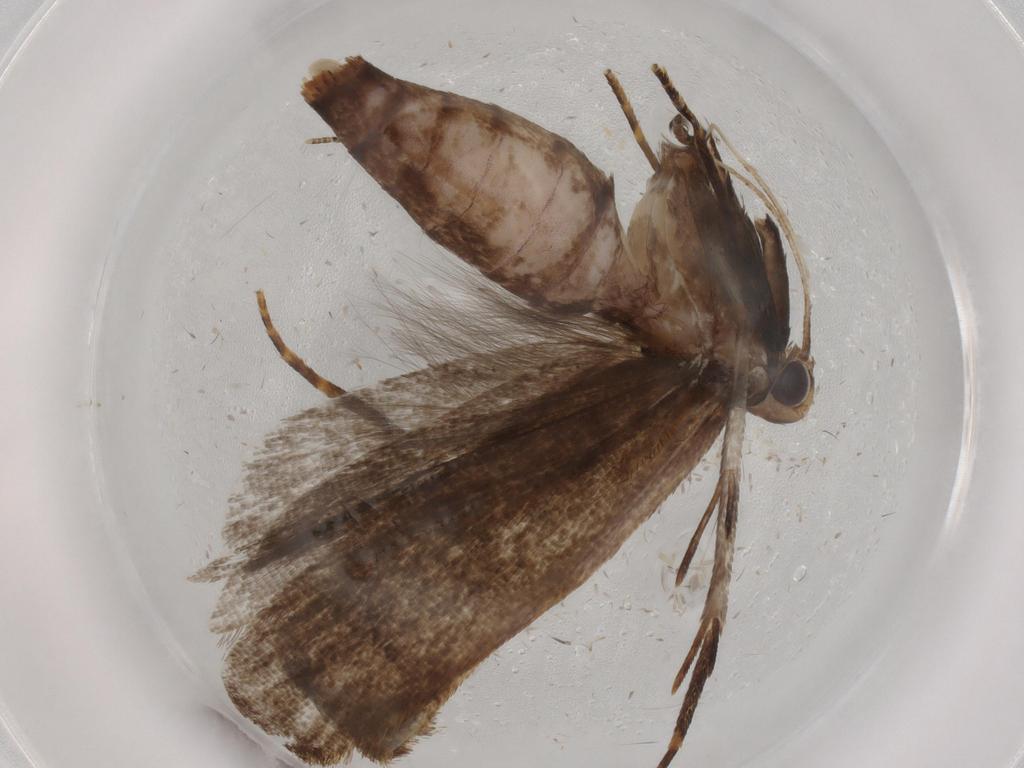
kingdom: Animalia
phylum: Arthropoda
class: Insecta
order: Lepidoptera
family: Gelechiidae
